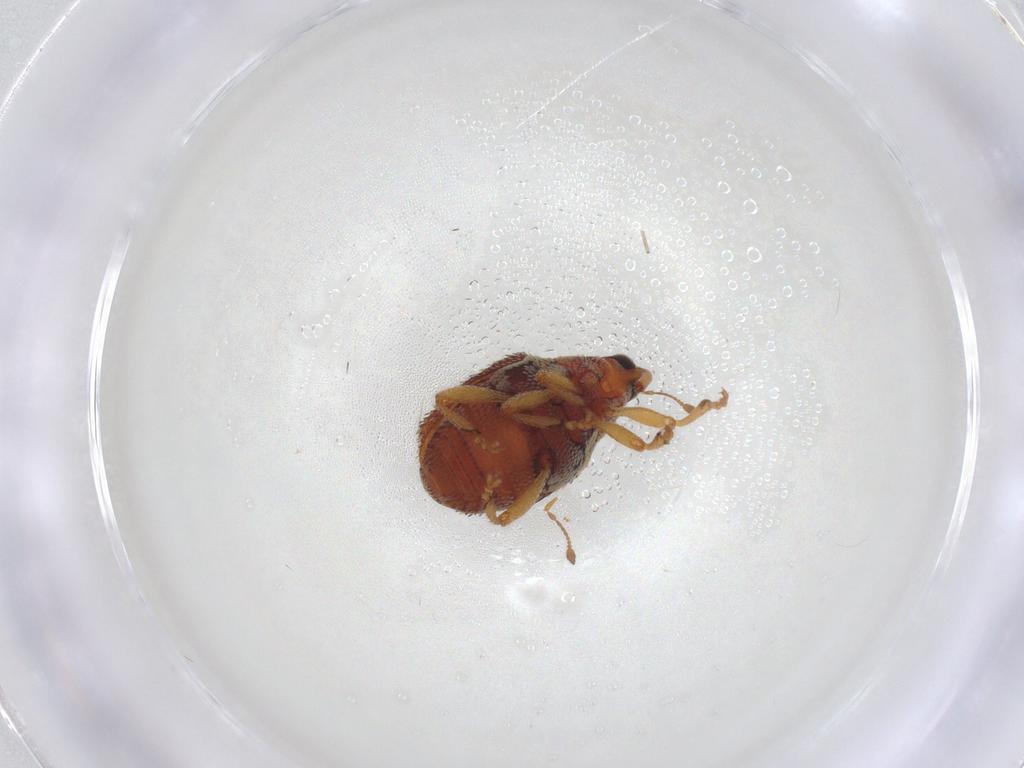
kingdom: Animalia
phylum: Arthropoda
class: Insecta
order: Coleoptera
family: Curculionidae
